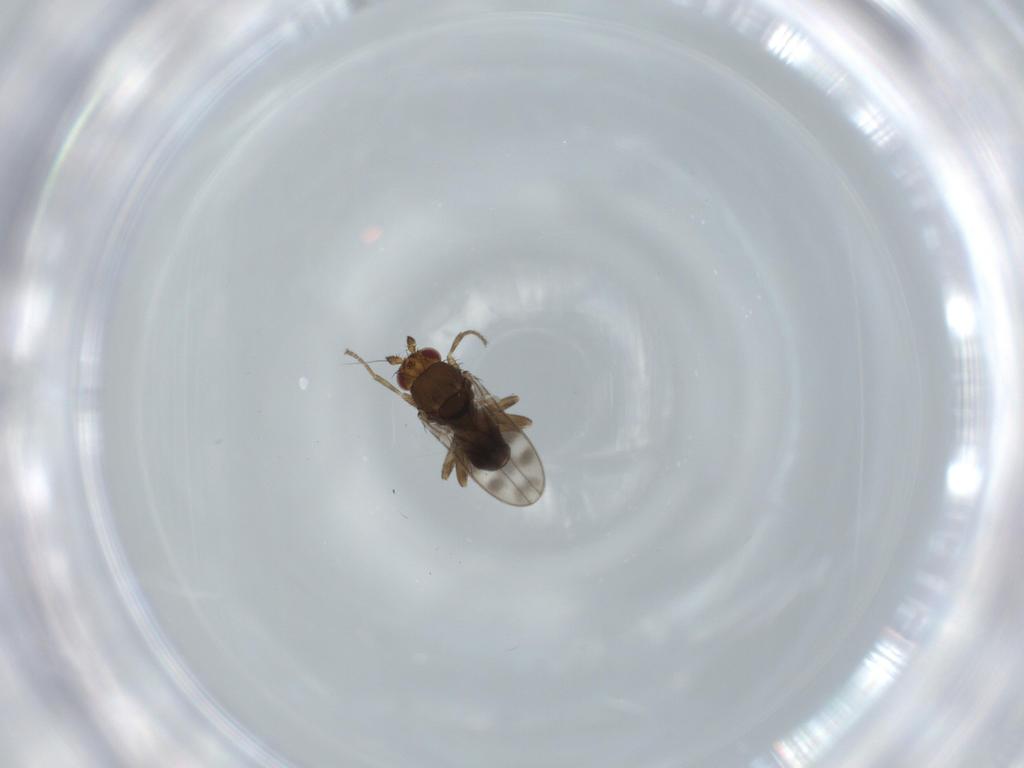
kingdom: Animalia
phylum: Arthropoda
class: Insecta
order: Diptera
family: Sphaeroceridae
